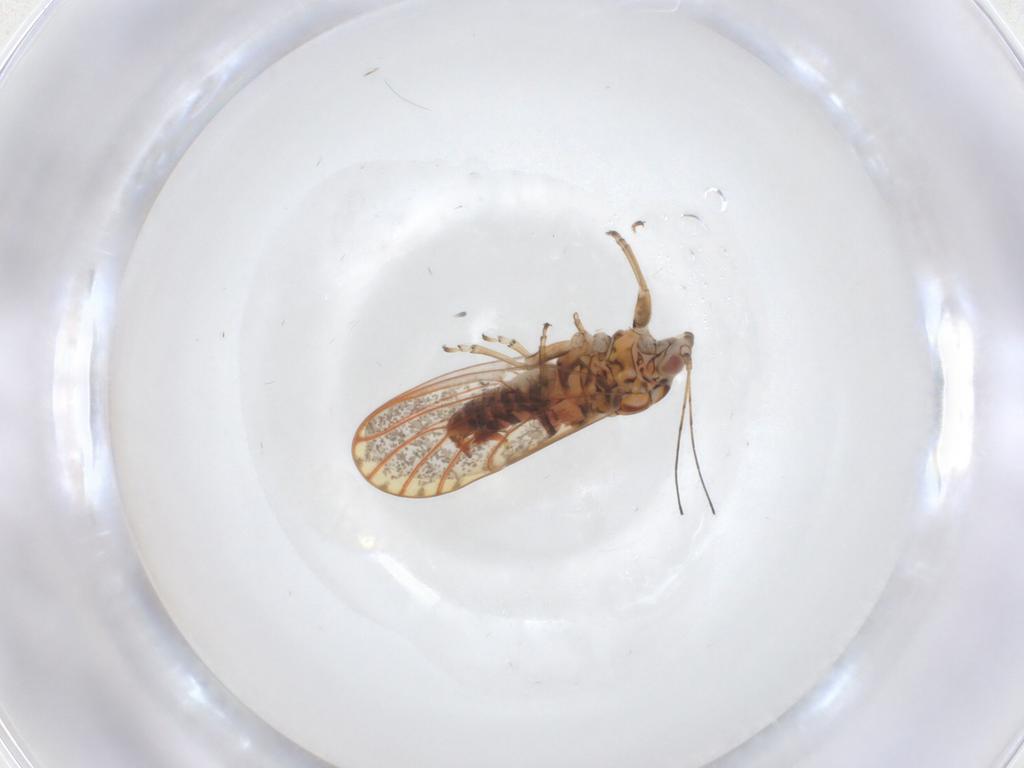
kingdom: Animalia
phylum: Arthropoda
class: Insecta
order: Hemiptera
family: Psyllidae
